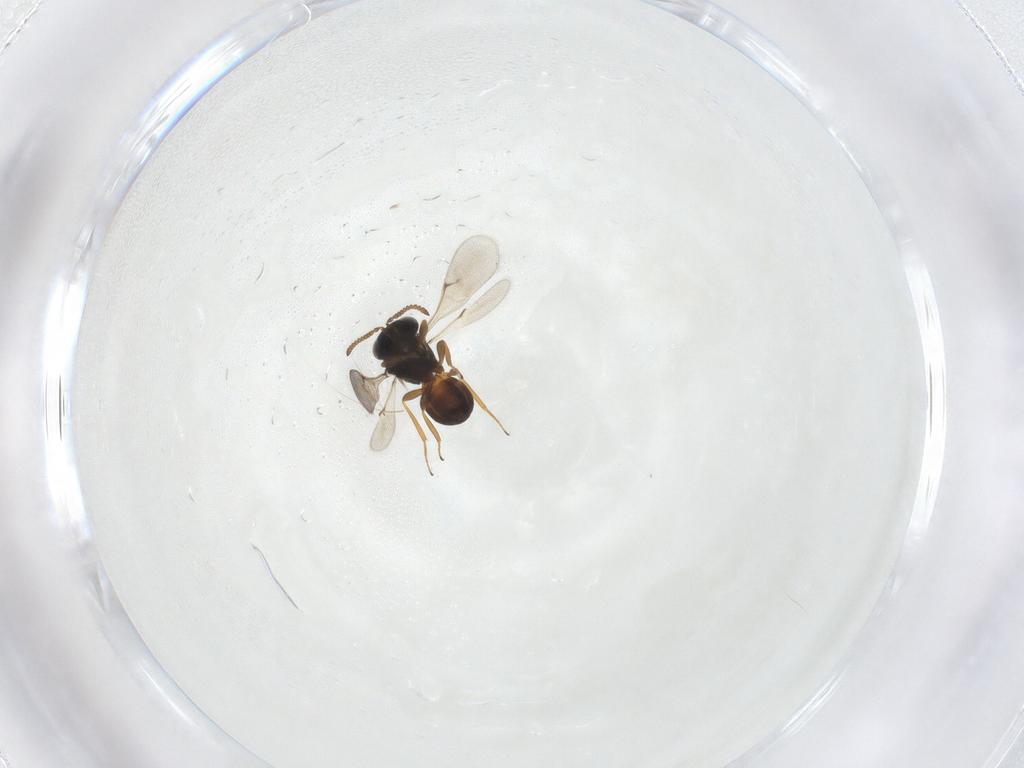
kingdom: Animalia
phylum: Arthropoda
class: Insecta
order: Hymenoptera
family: Scelionidae
